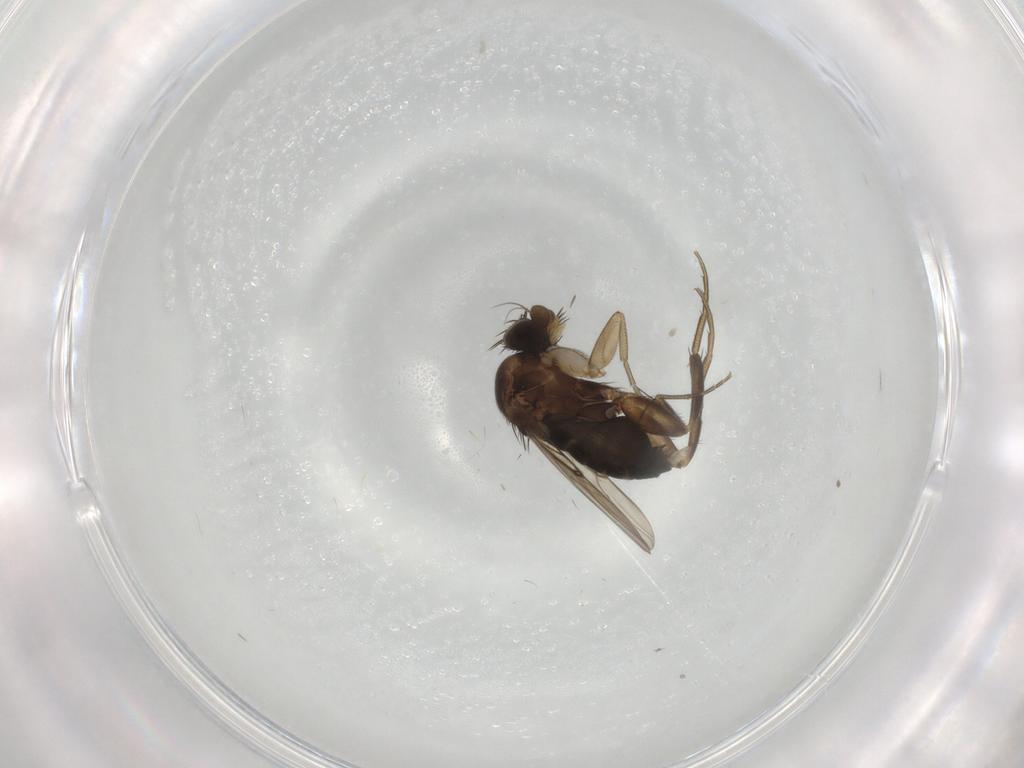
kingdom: Animalia
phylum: Arthropoda
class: Insecta
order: Diptera
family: Phoridae
